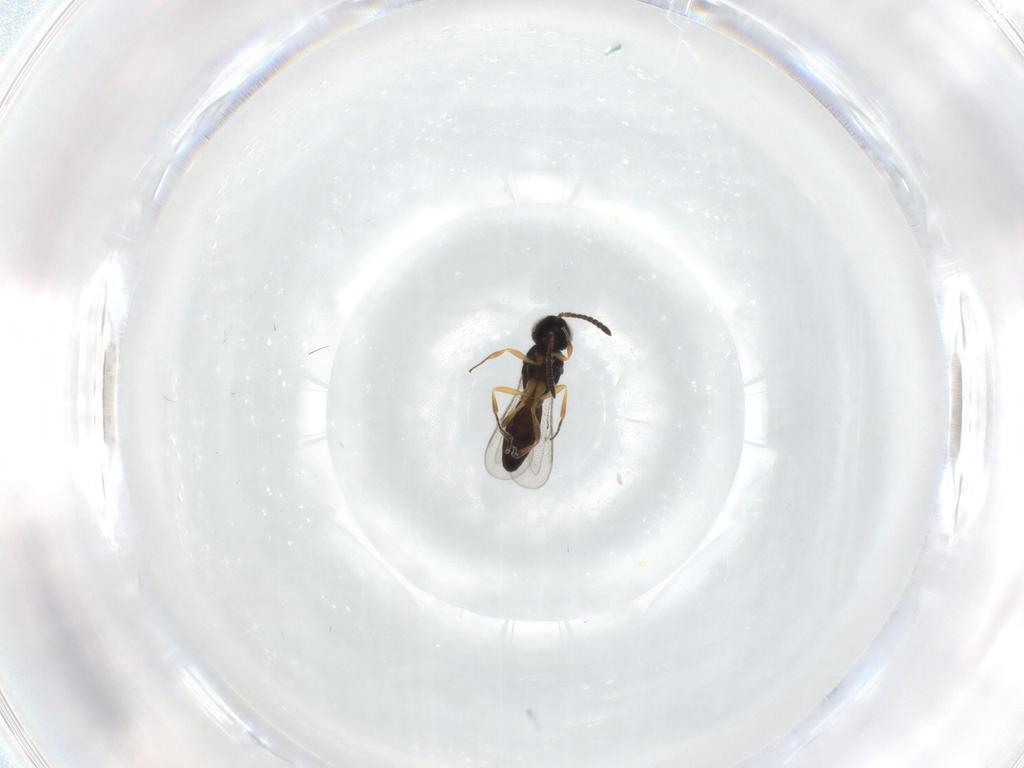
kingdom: Animalia
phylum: Arthropoda
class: Insecta
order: Hymenoptera
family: Scelionidae
